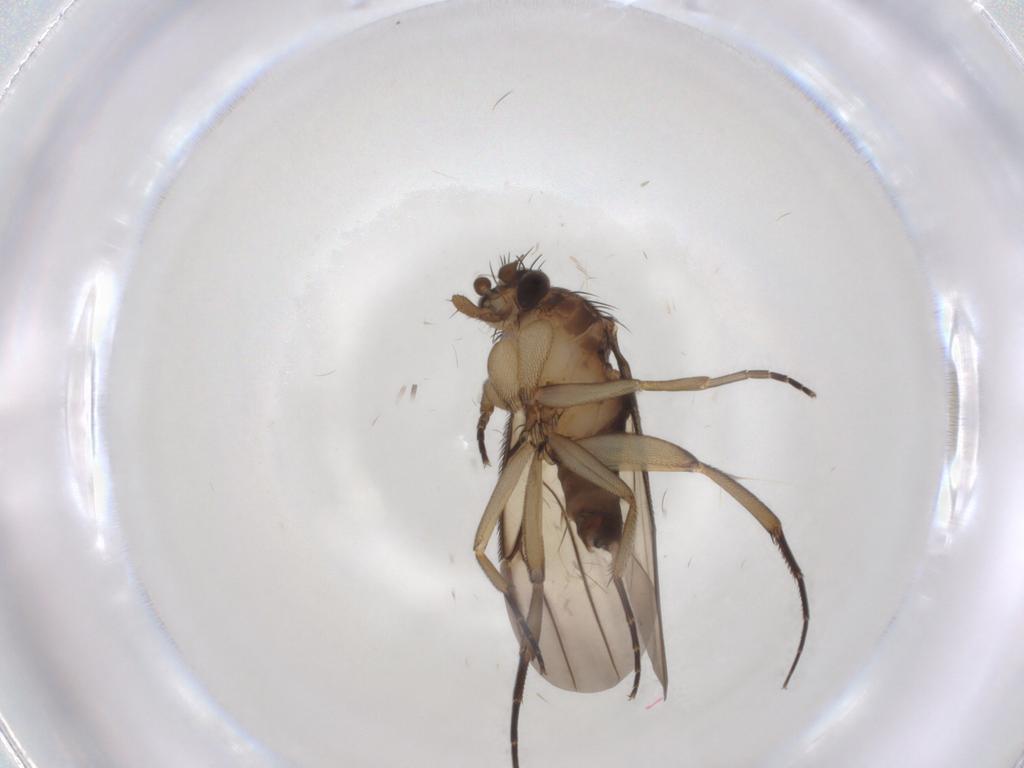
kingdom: Animalia
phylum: Arthropoda
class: Insecta
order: Diptera
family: Phoridae
